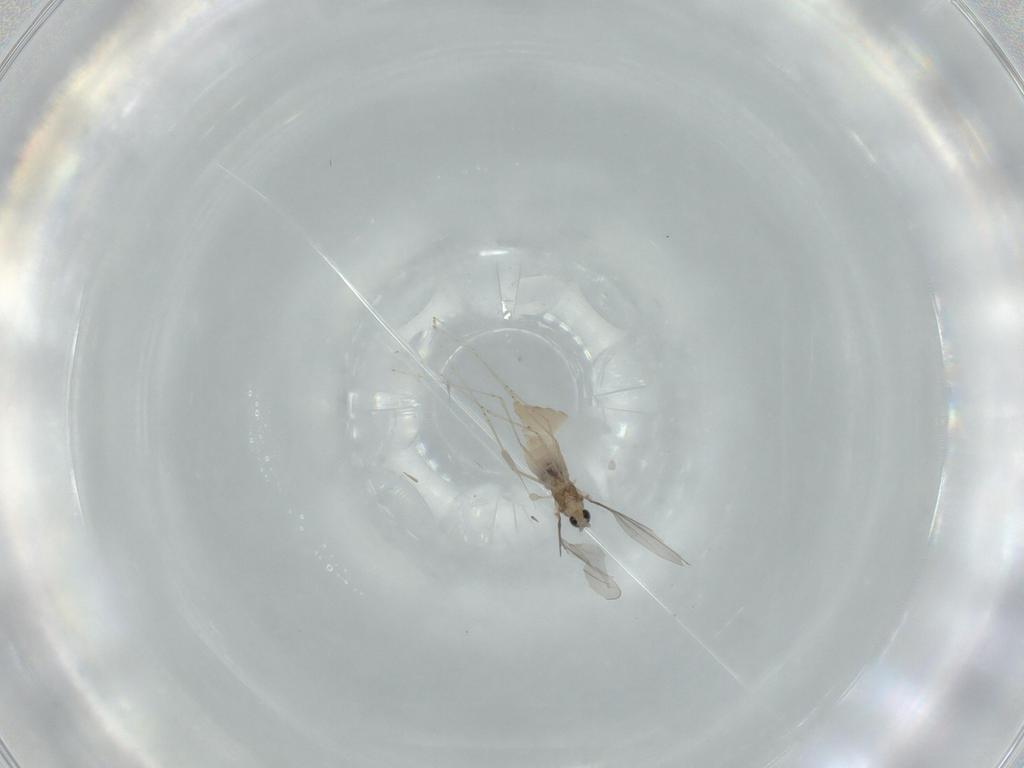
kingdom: Animalia
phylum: Arthropoda
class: Insecta
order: Diptera
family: Cecidomyiidae
